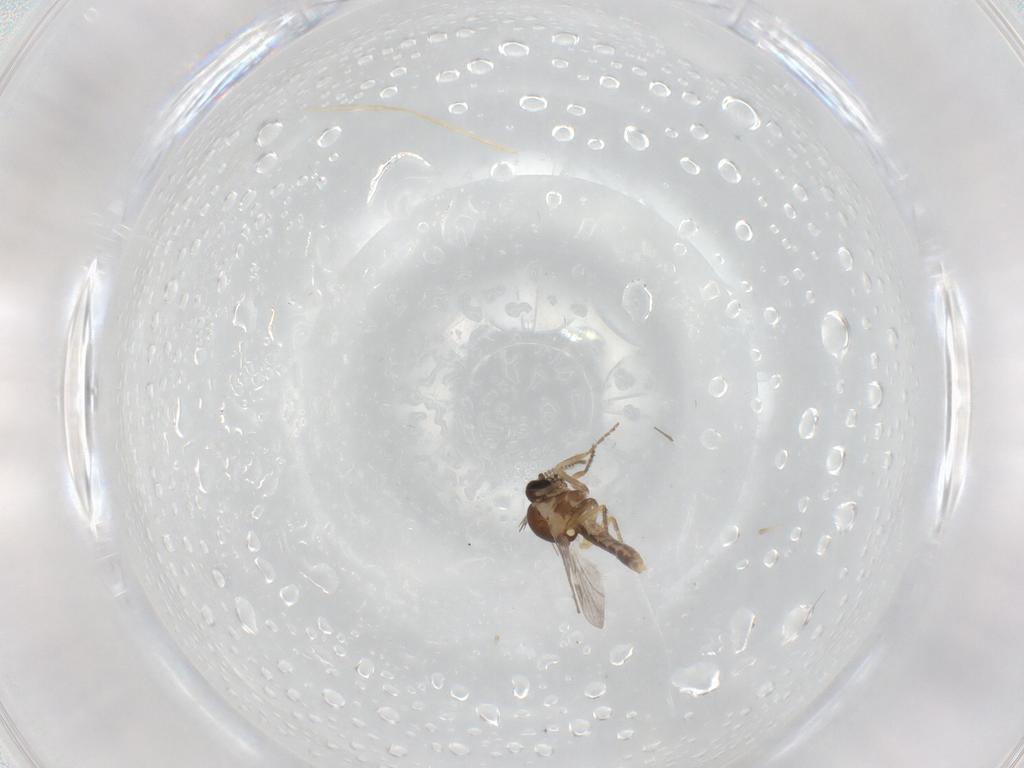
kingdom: Animalia
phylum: Arthropoda
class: Insecta
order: Diptera
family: Ceratopogonidae
